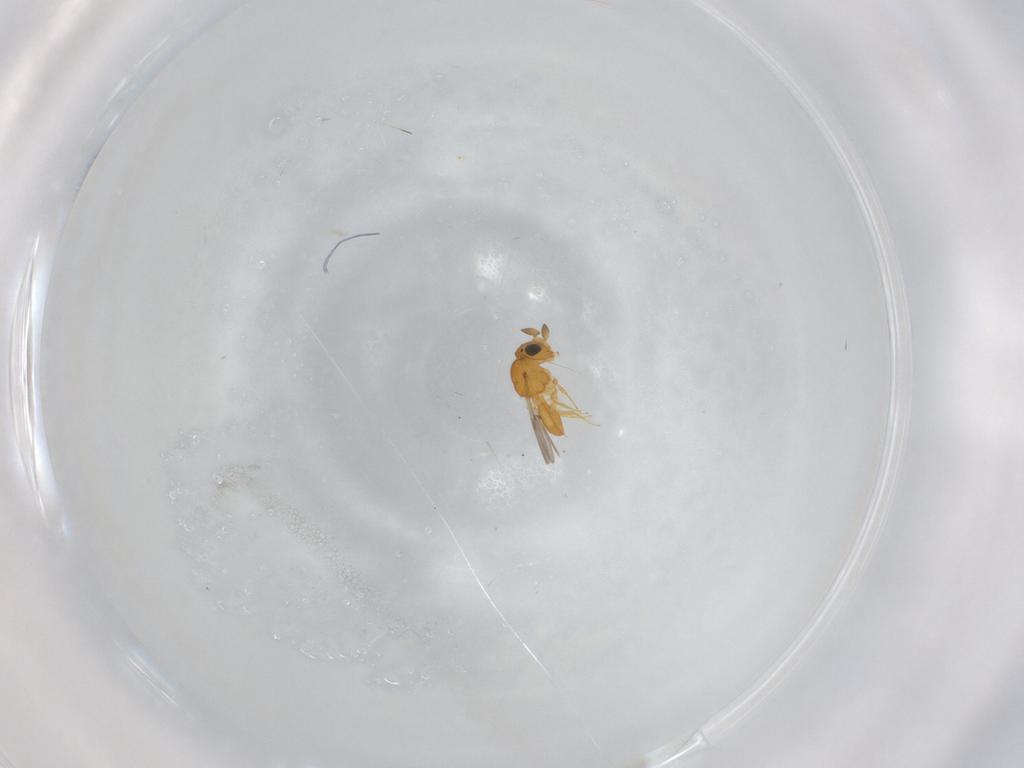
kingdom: Animalia
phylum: Arthropoda
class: Insecta
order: Hymenoptera
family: Scelionidae
